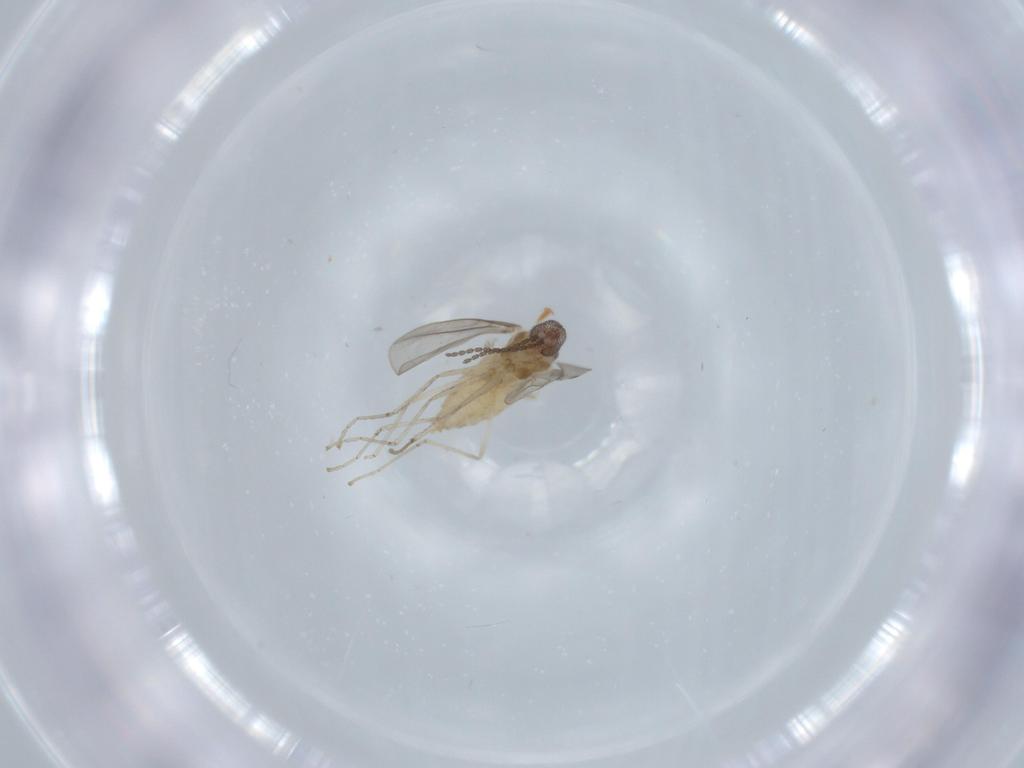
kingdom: Animalia
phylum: Arthropoda
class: Insecta
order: Diptera
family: Cecidomyiidae
